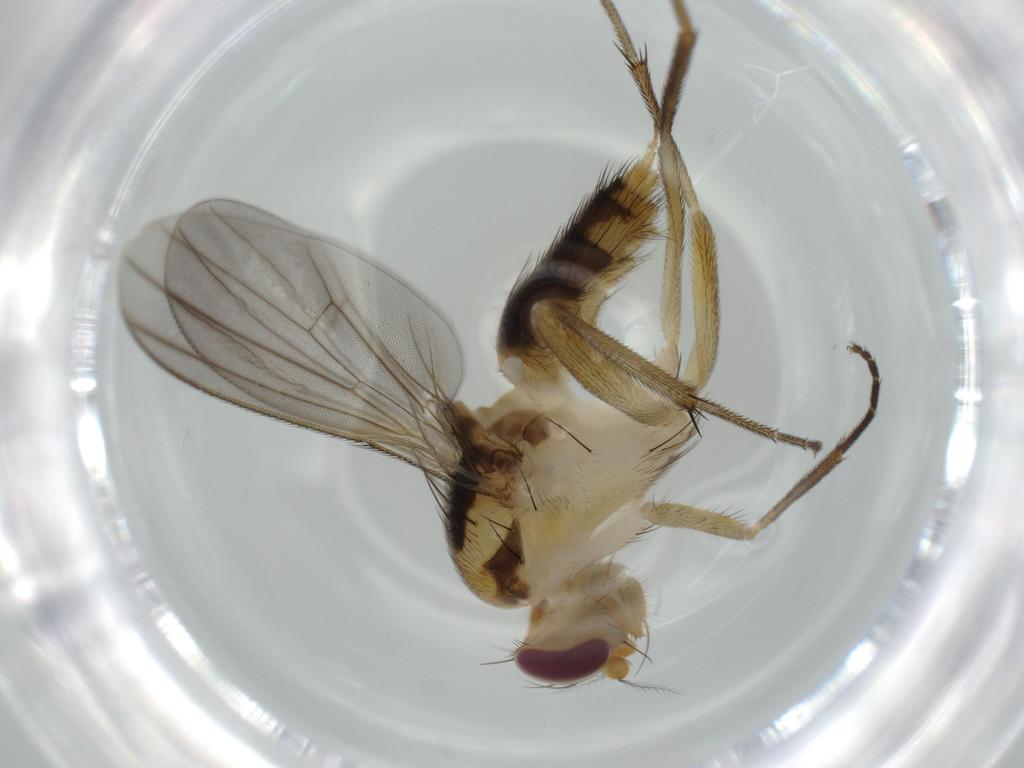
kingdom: Animalia
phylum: Arthropoda
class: Insecta
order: Diptera
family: Clusiidae
